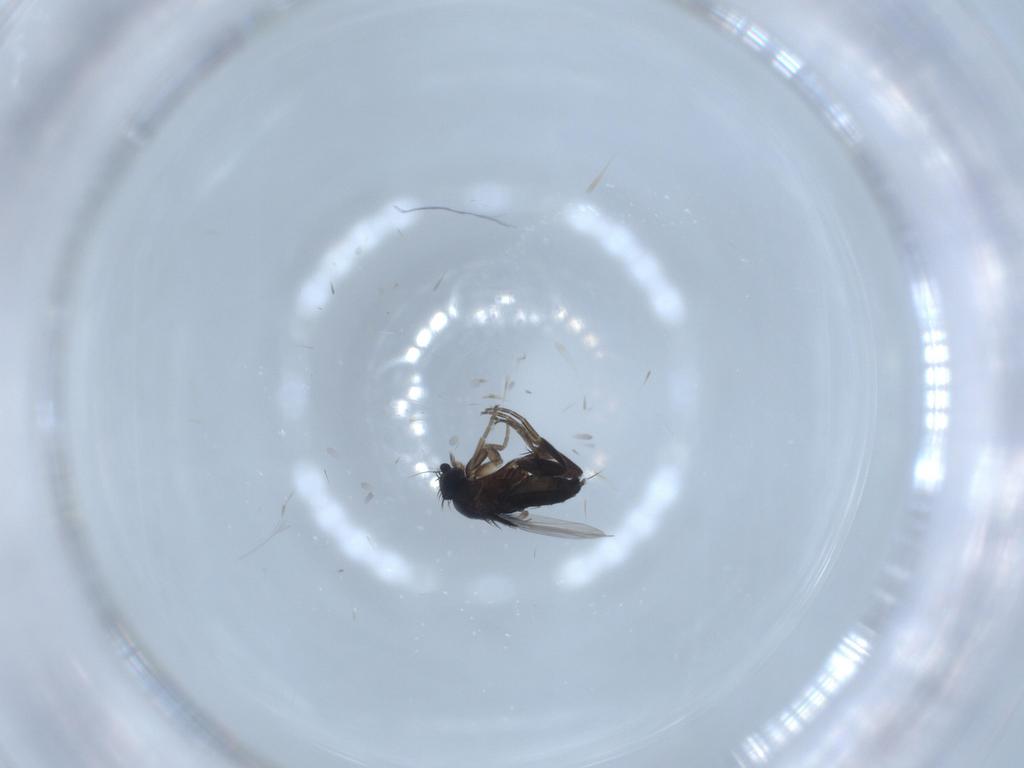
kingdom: Animalia
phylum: Arthropoda
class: Insecta
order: Diptera
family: Phoridae
